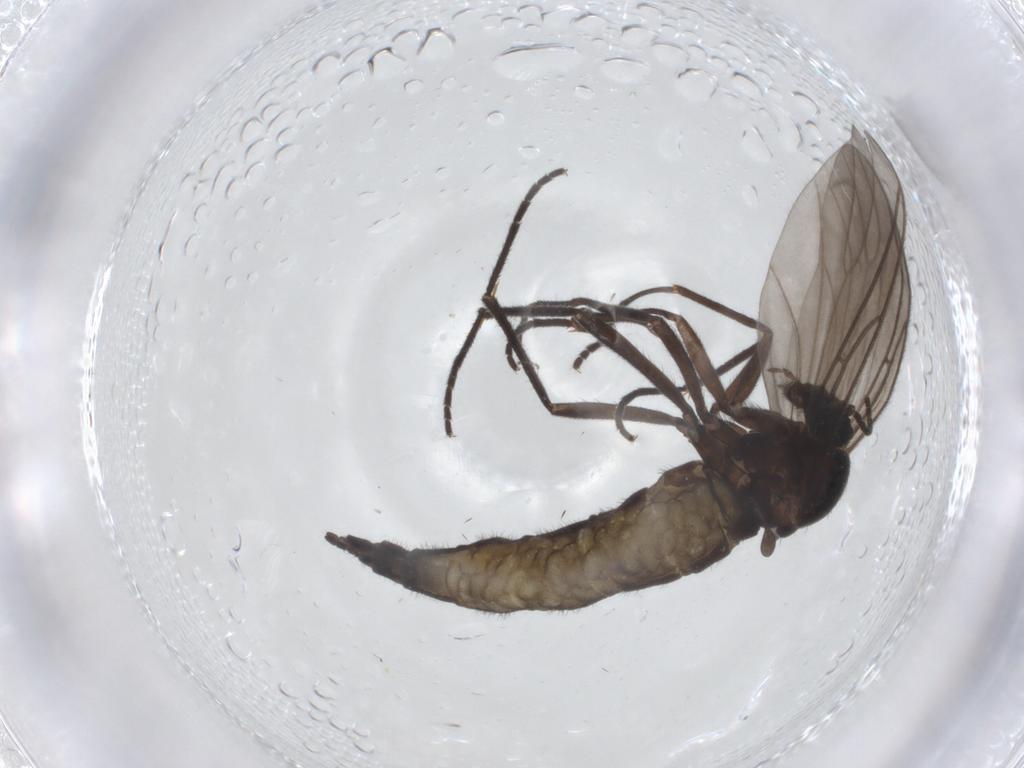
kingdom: Animalia
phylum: Arthropoda
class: Insecta
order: Diptera
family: Sciaridae
